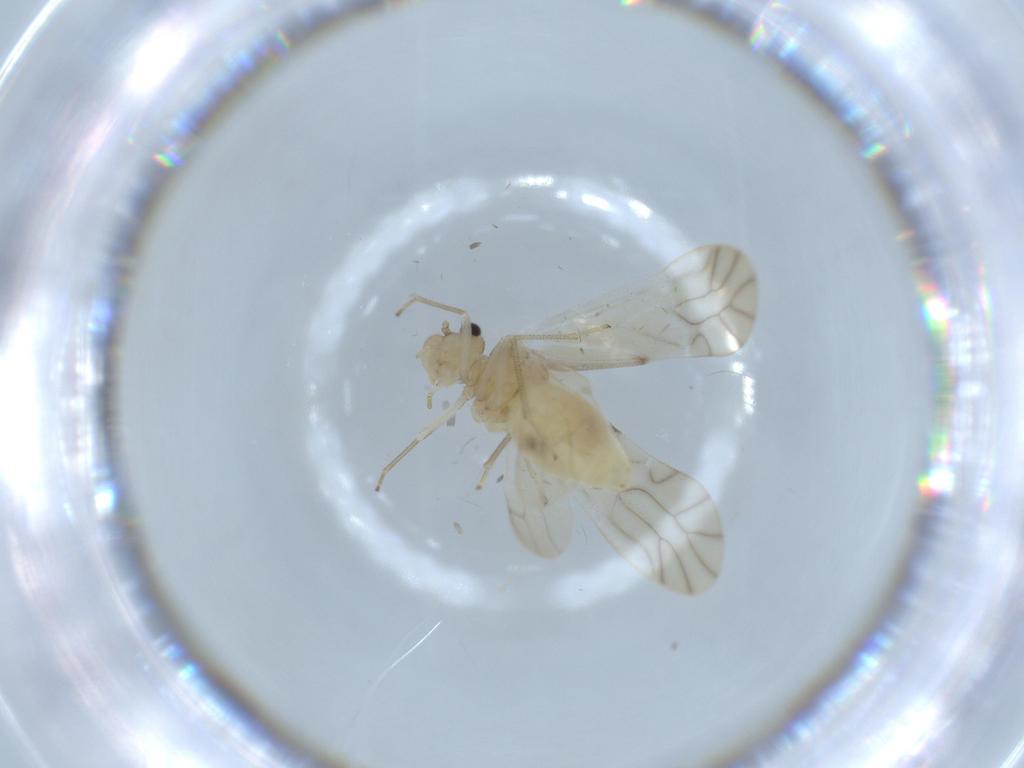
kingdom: Animalia
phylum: Arthropoda
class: Insecta
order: Psocodea
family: Caeciliusidae
